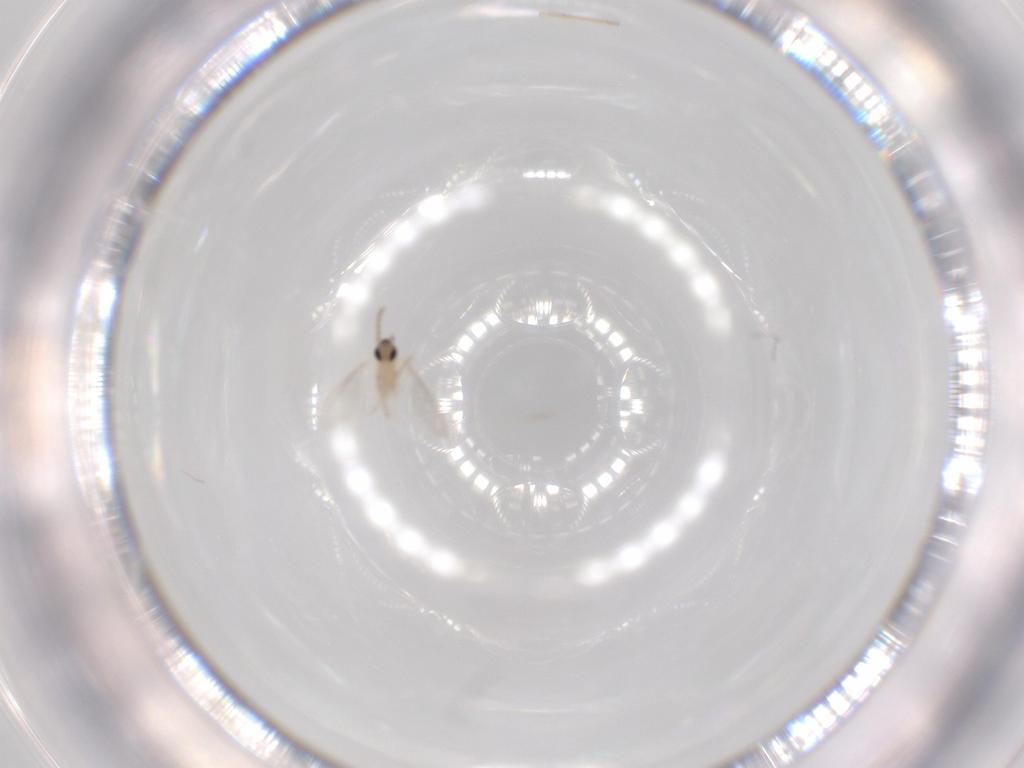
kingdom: Animalia
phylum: Arthropoda
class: Insecta
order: Diptera
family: Cecidomyiidae
